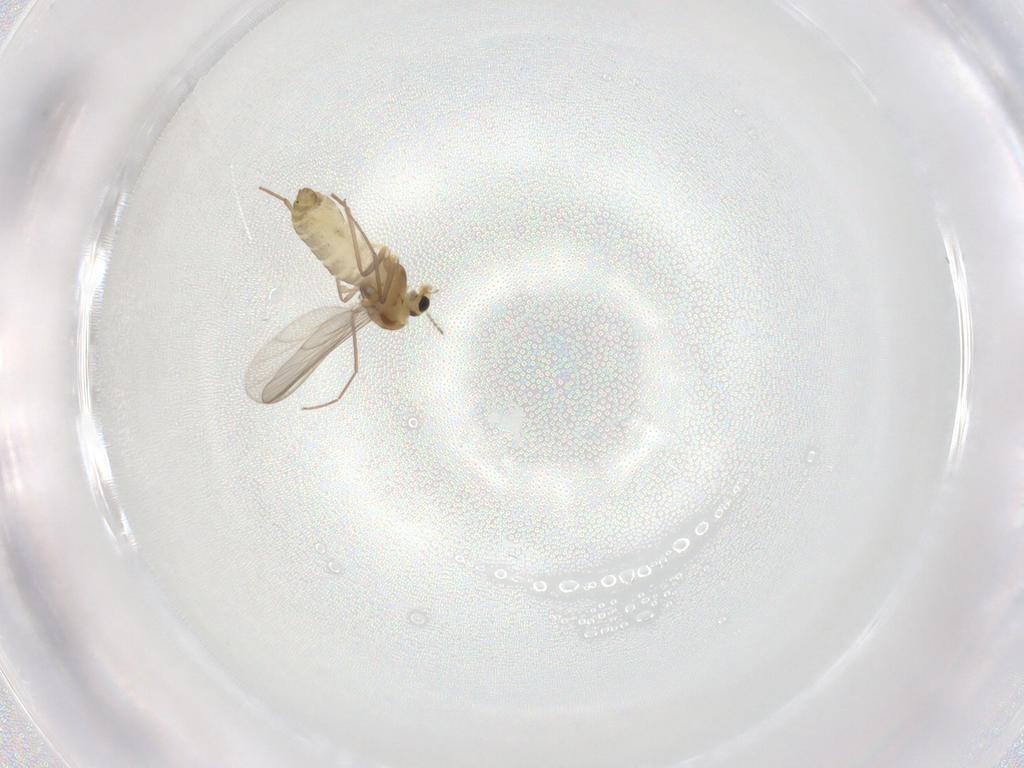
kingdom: Animalia
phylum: Arthropoda
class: Insecta
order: Diptera
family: Chironomidae
